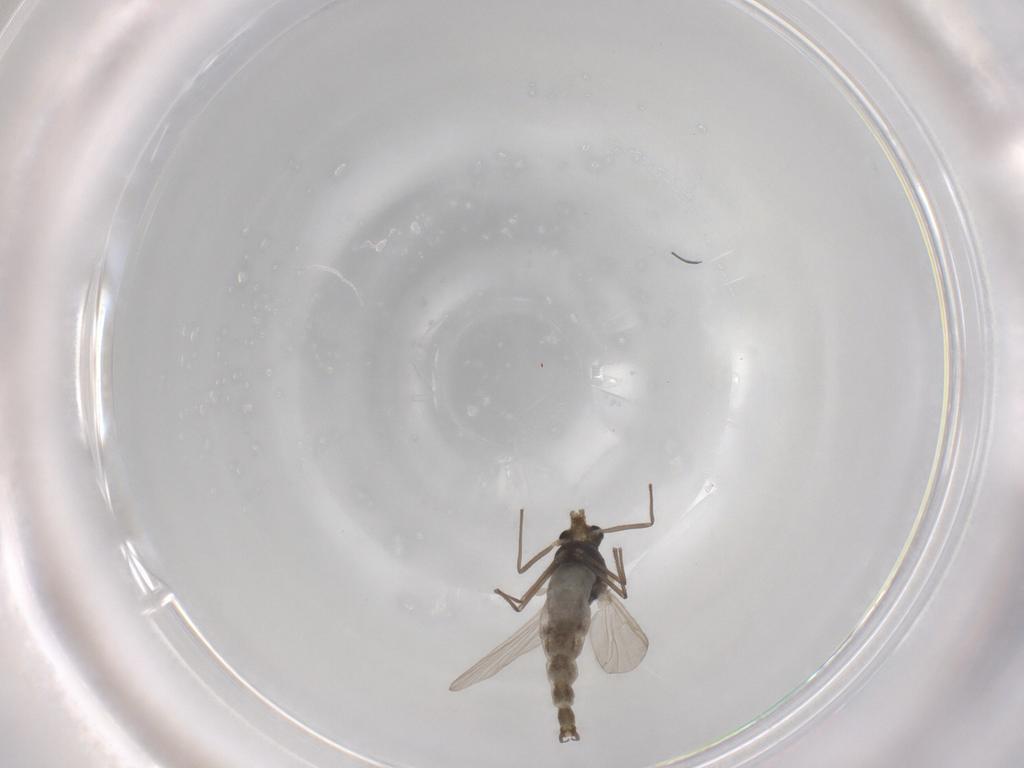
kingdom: Animalia
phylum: Arthropoda
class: Insecta
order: Diptera
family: Chironomidae
